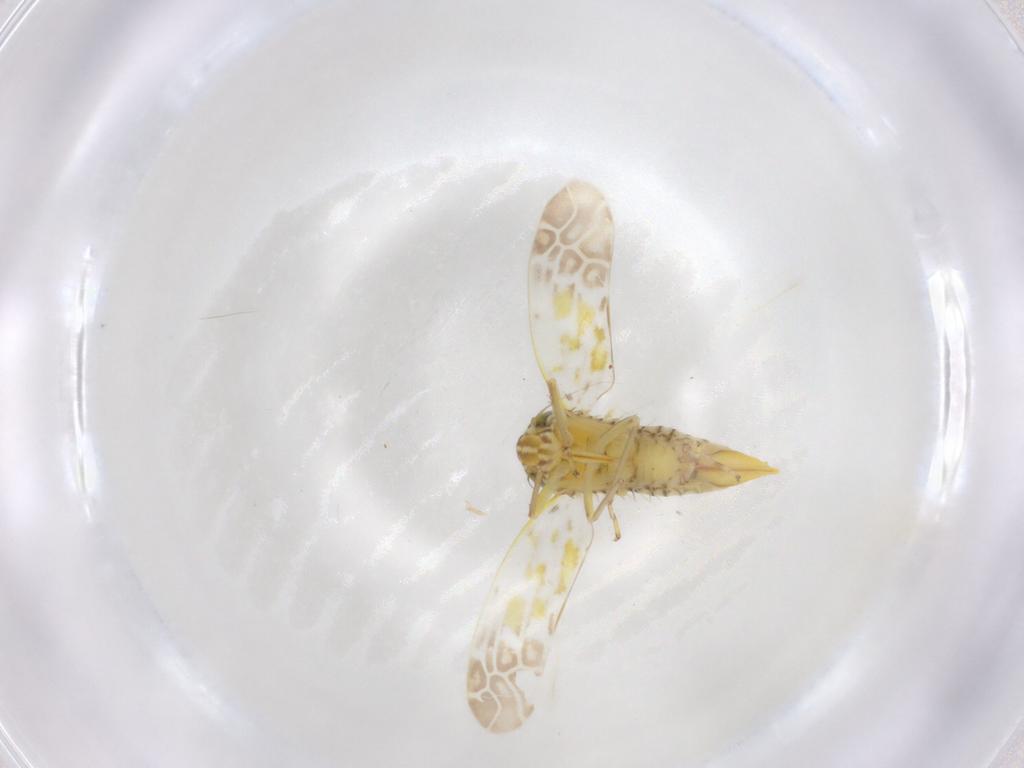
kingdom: Animalia
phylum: Arthropoda
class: Insecta
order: Hemiptera
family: Cicadellidae
